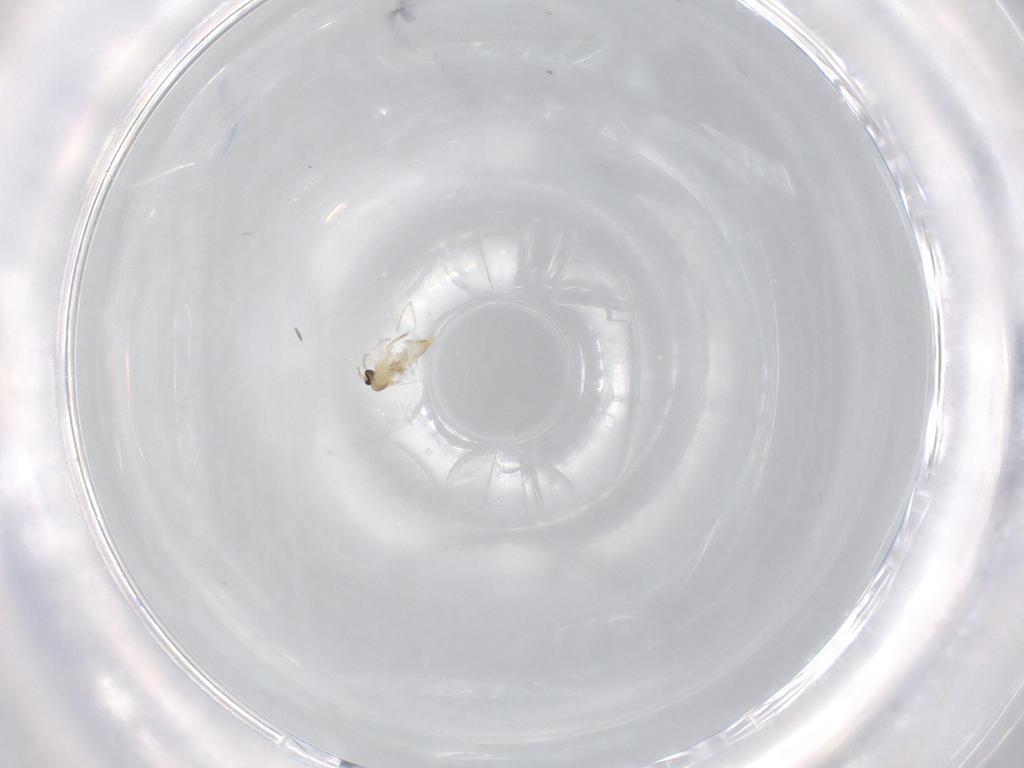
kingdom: Animalia
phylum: Arthropoda
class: Insecta
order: Diptera
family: Cecidomyiidae
